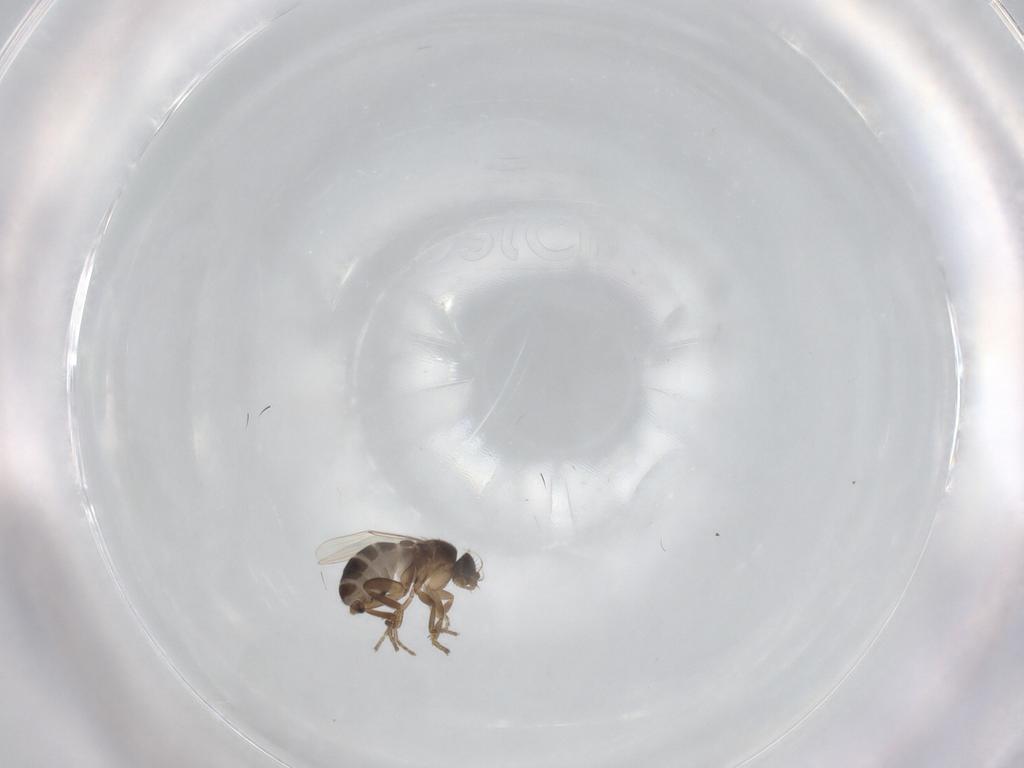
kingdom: Animalia
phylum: Arthropoda
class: Insecta
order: Diptera
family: Phoridae
